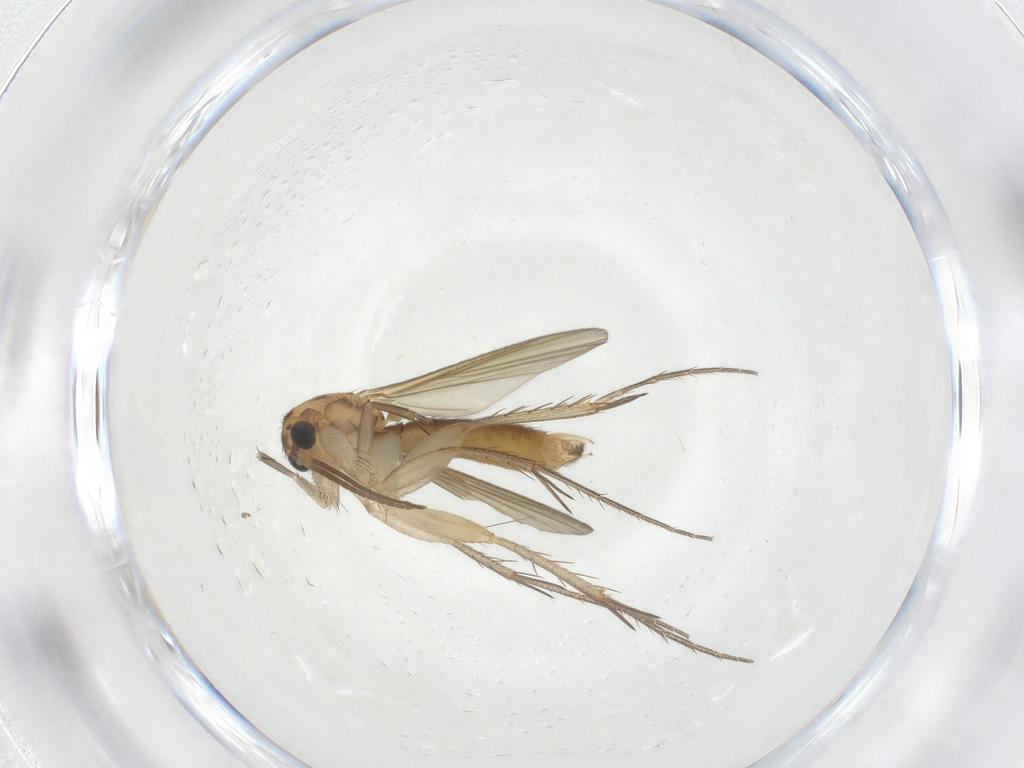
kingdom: Animalia
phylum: Arthropoda
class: Insecta
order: Diptera
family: Mycetophilidae
